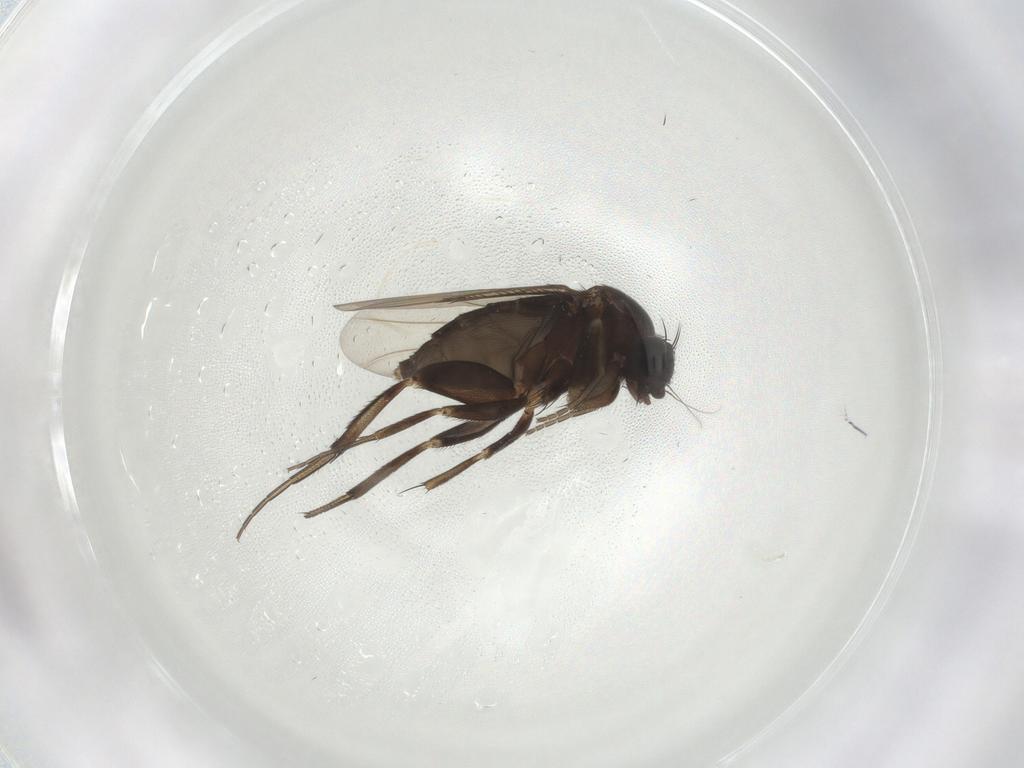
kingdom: Animalia
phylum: Arthropoda
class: Insecta
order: Diptera
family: Phoridae
